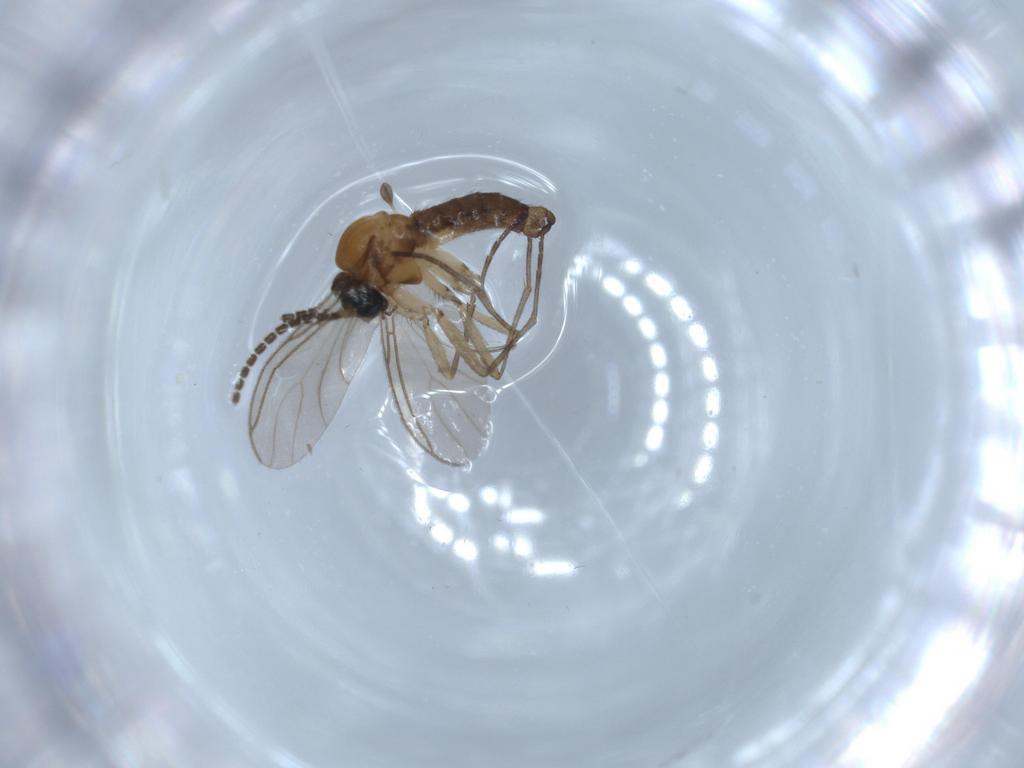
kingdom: Animalia
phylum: Arthropoda
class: Insecta
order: Diptera
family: Sciaridae
